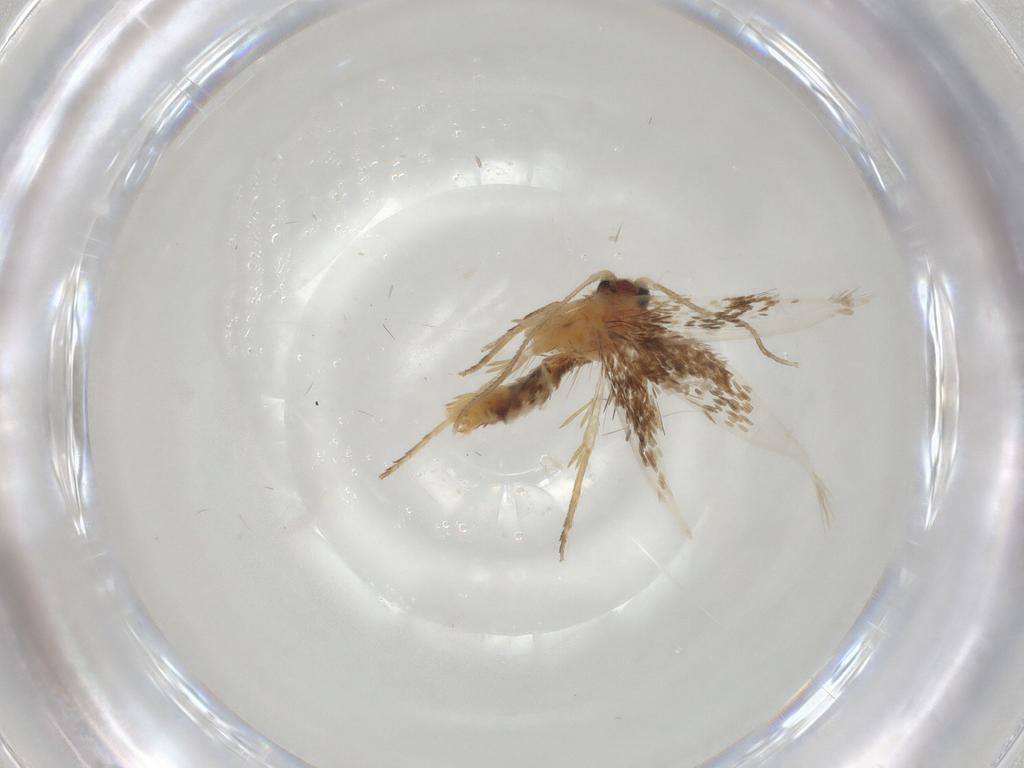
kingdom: Animalia
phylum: Arthropoda
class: Insecta
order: Lepidoptera
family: Nepticulidae
